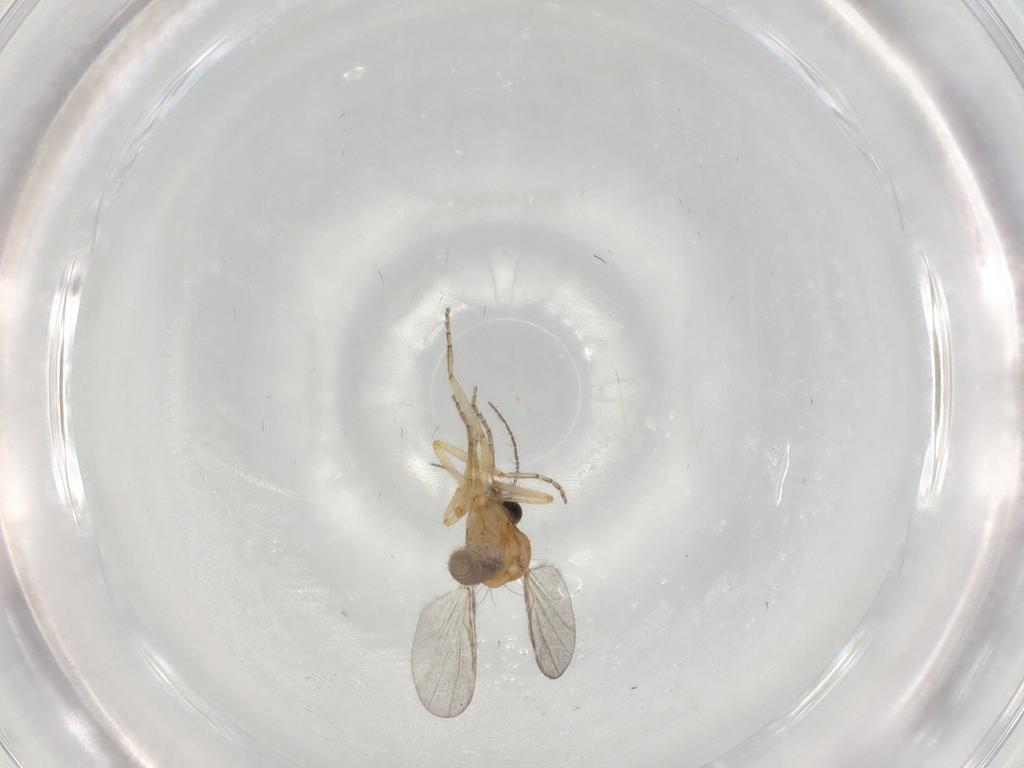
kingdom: Animalia
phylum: Arthropoda
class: Insecta
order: Diptera
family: Ceratopogonidae
